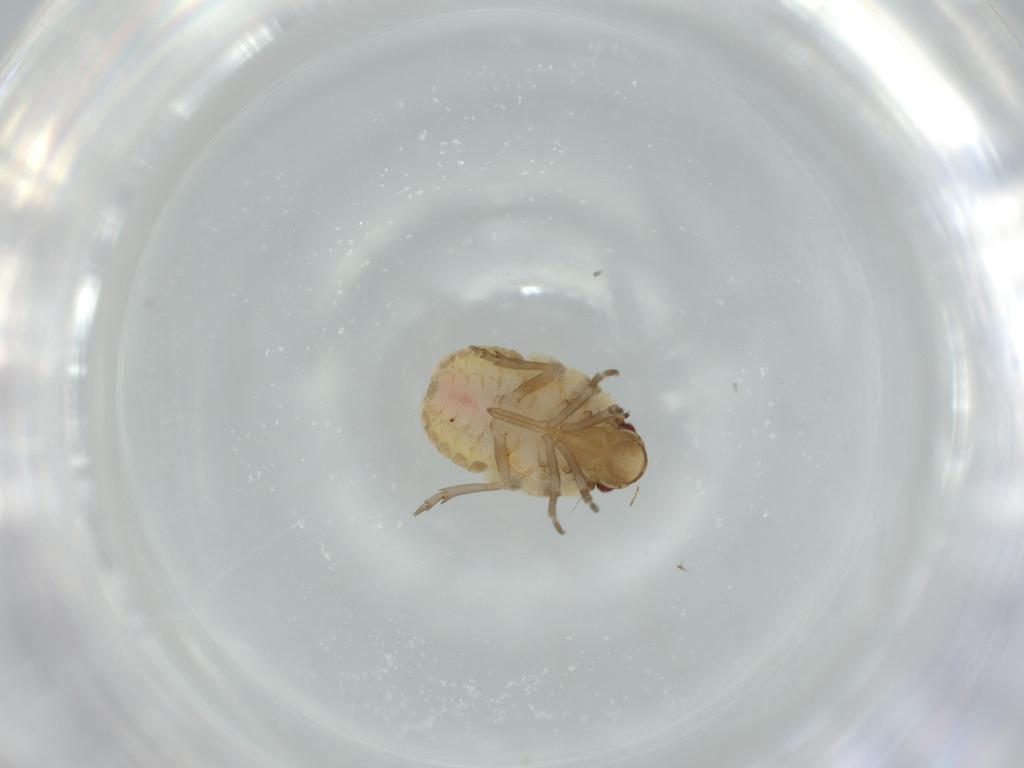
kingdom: Animalia
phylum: Arthropoda
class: Insecta
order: Hemiptera
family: Flatidae
